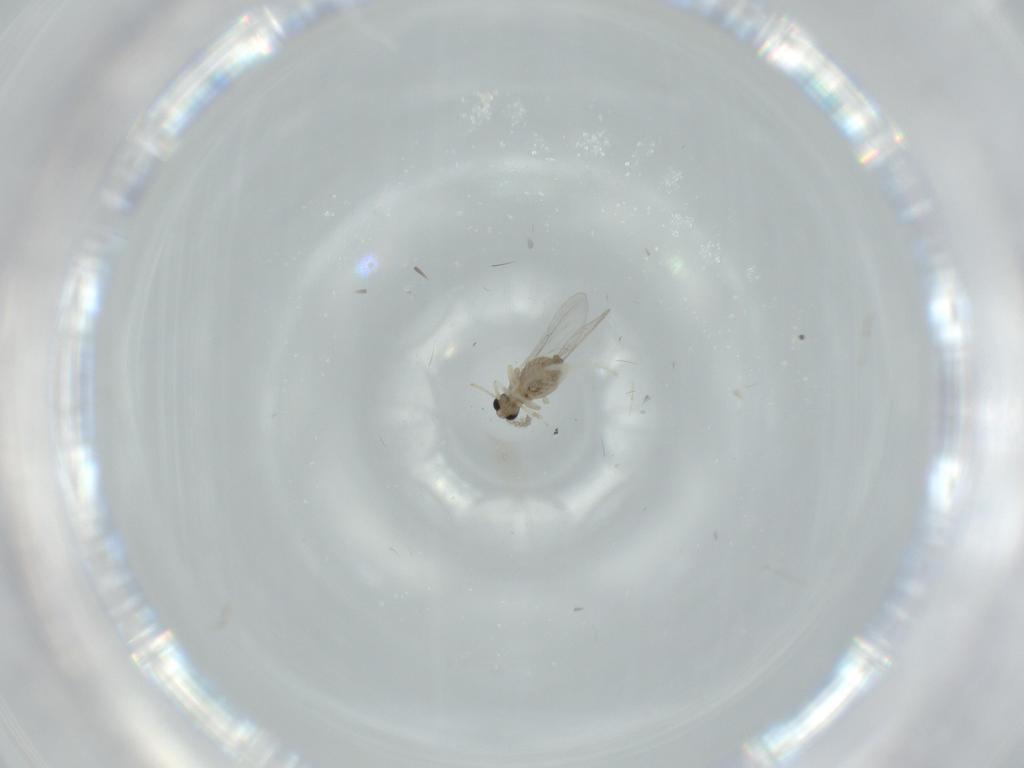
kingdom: Animalia
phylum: Arthropoda
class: Insecta
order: Diptera
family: Cecidomyiidae
